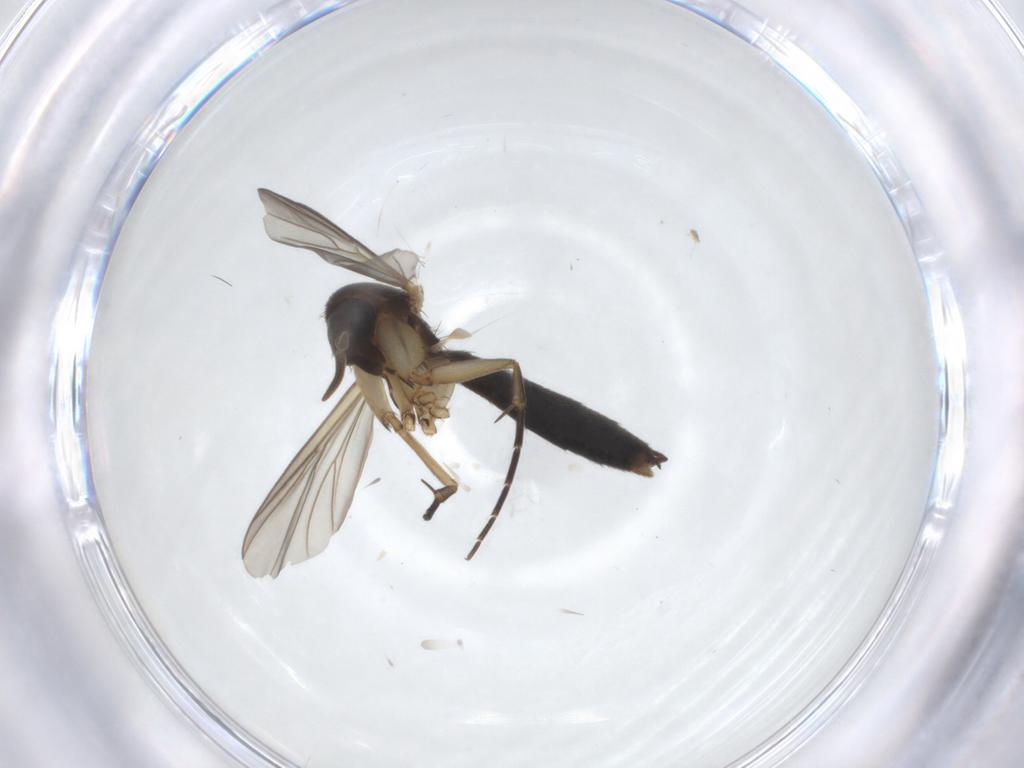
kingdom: Animalia
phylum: Arthropoda
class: Insecta
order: Diptera
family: Mycetophilidae
